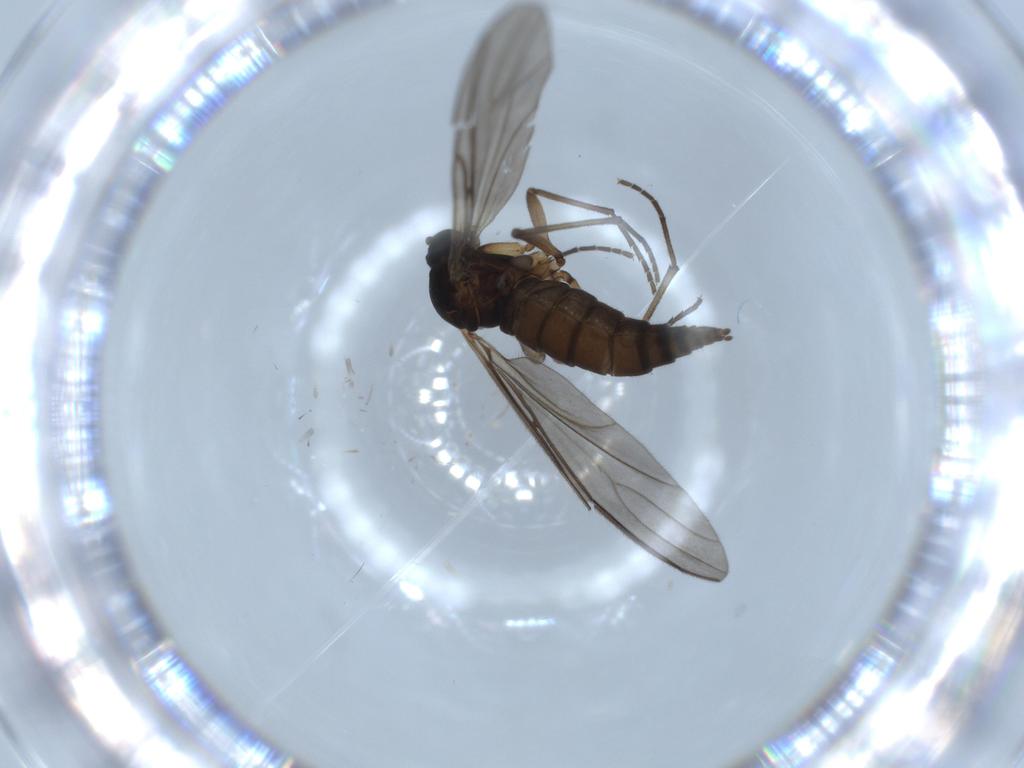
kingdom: Animalia
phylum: Arthropoda
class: Insecta
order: Diptera
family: Sciaridae
